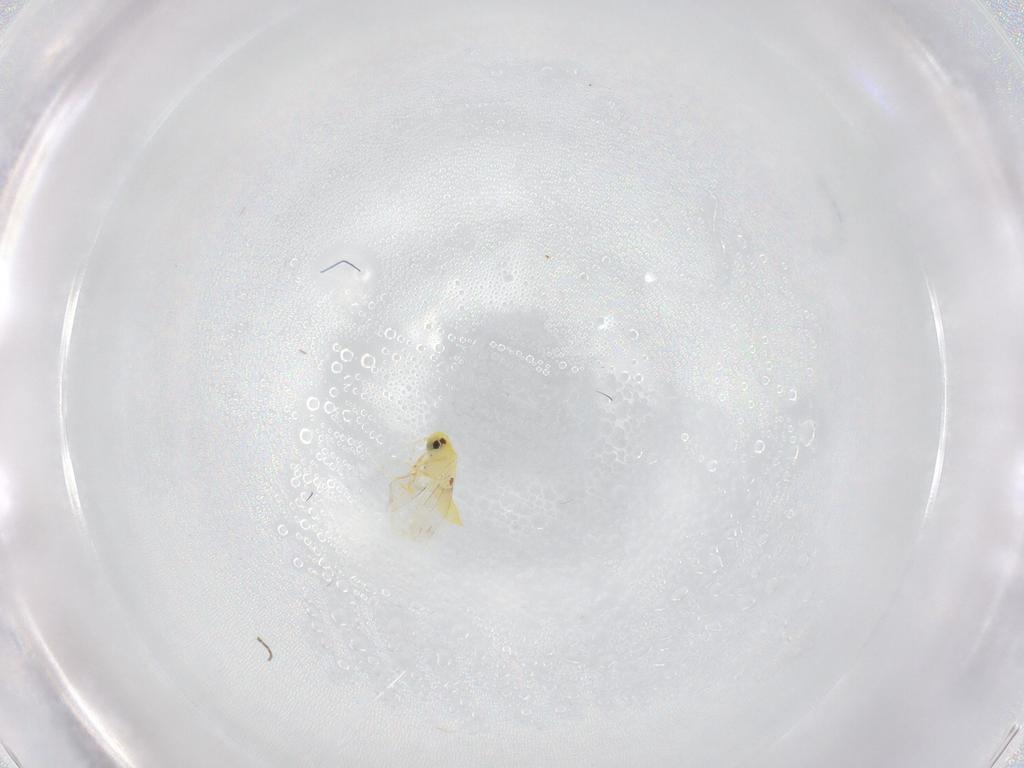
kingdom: Animalia
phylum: Arthropoda
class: Insecta
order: Hemiptera
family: Aleyrodidae
